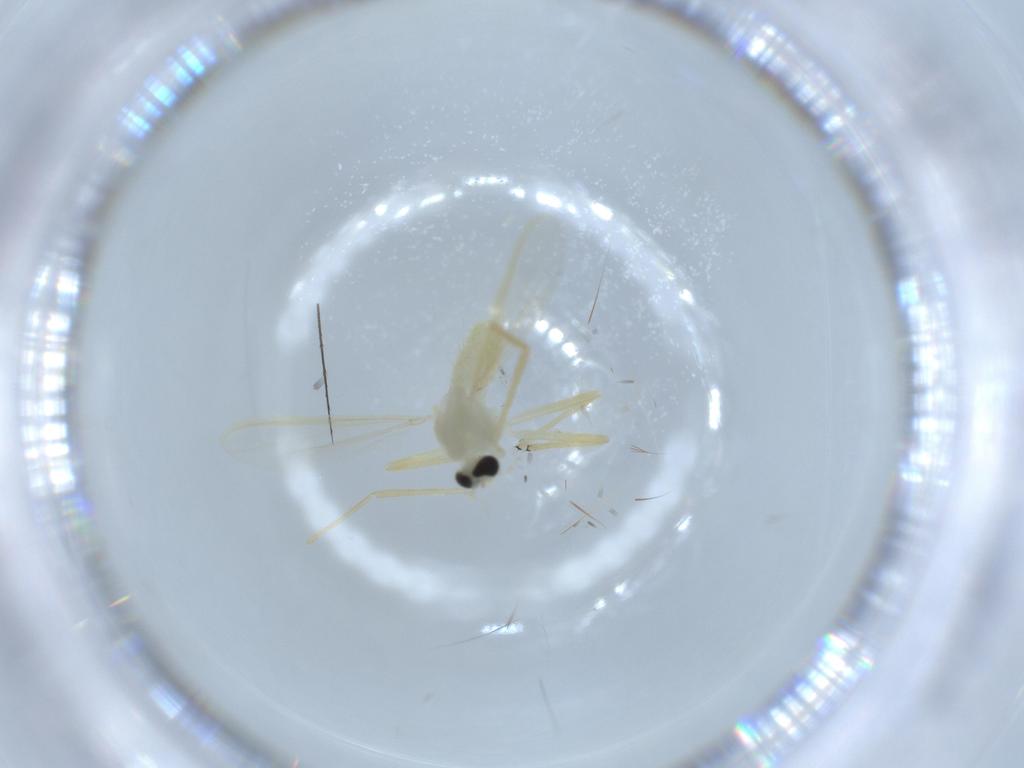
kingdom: Animalia
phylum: Arthropoda
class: Insecta
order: Diptera
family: Chironomidae
